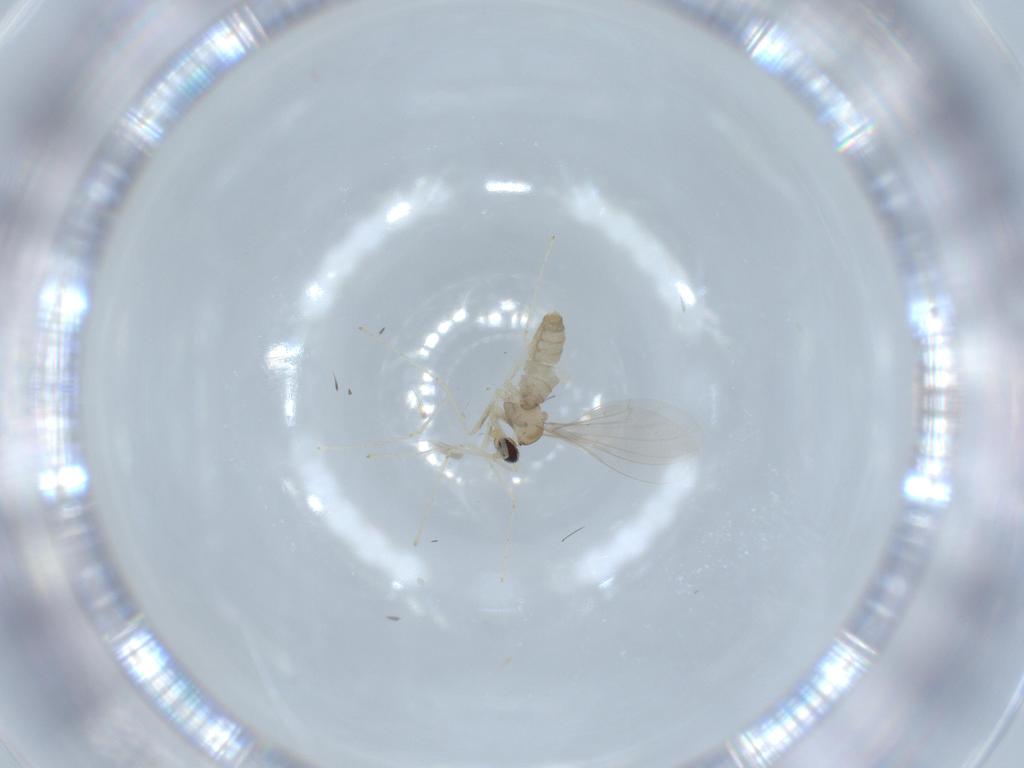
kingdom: Animalia
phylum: Arthropoda
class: Insecta
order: Diptera
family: Cecidomyiidae
